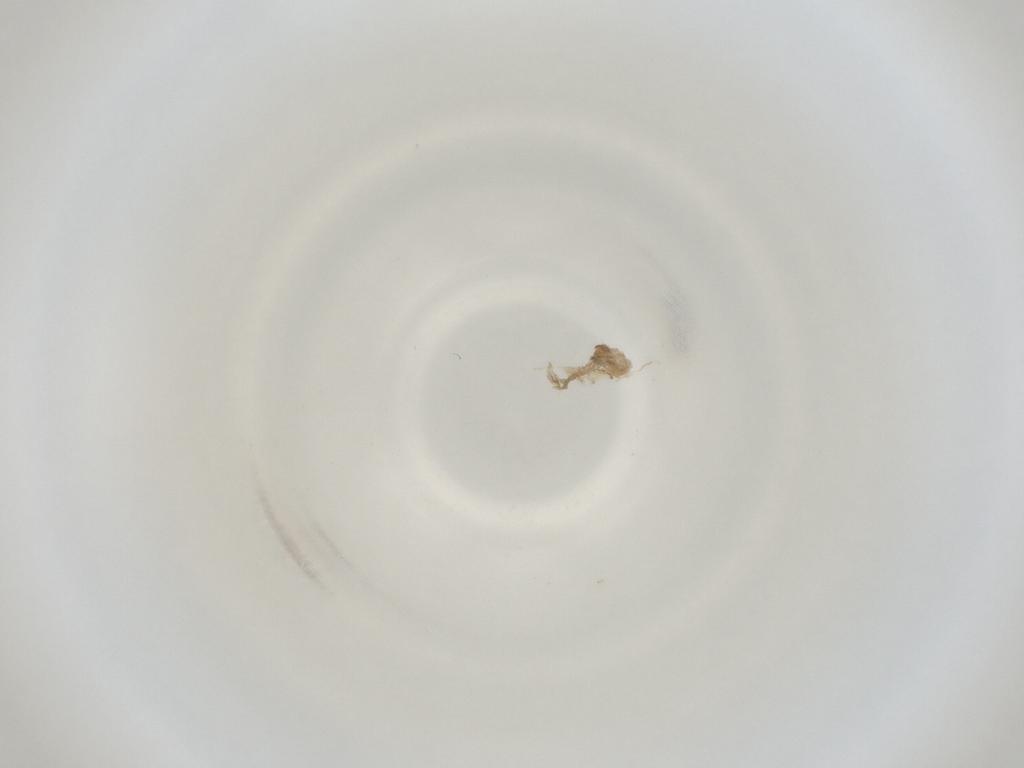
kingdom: Animalia
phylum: Arthropoda
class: Insecta
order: Diptera
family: Cecidomyiidae
